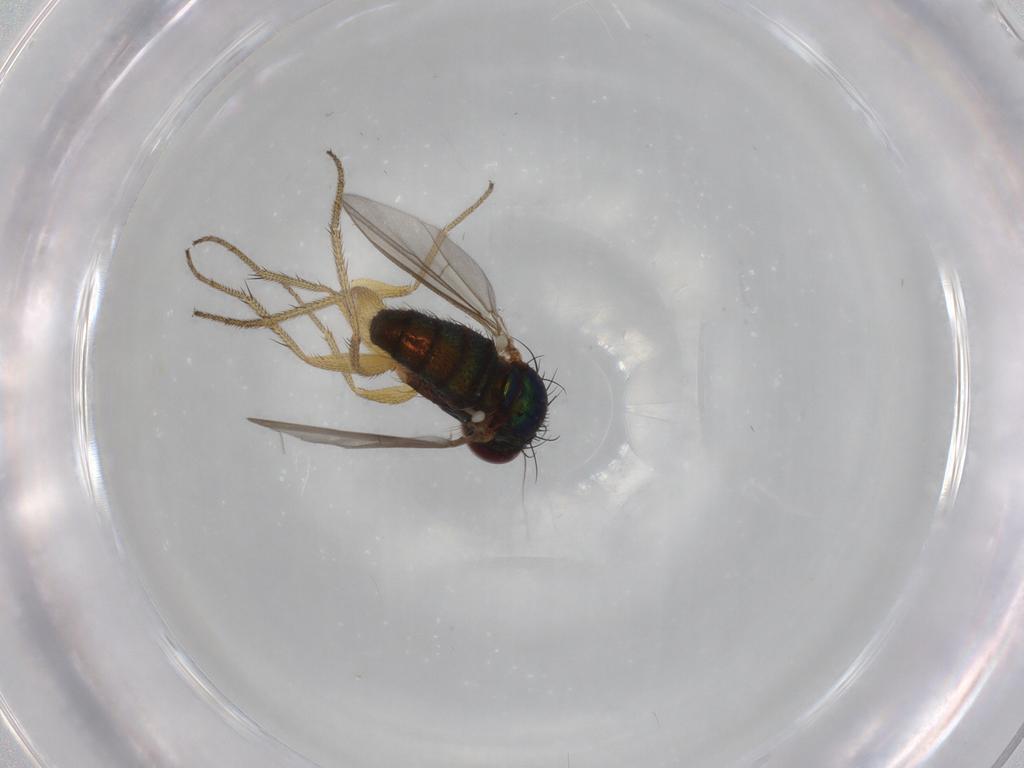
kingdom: Animalia
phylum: Arthropoda
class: Insecta
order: Diptera
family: Dolichopodidae
